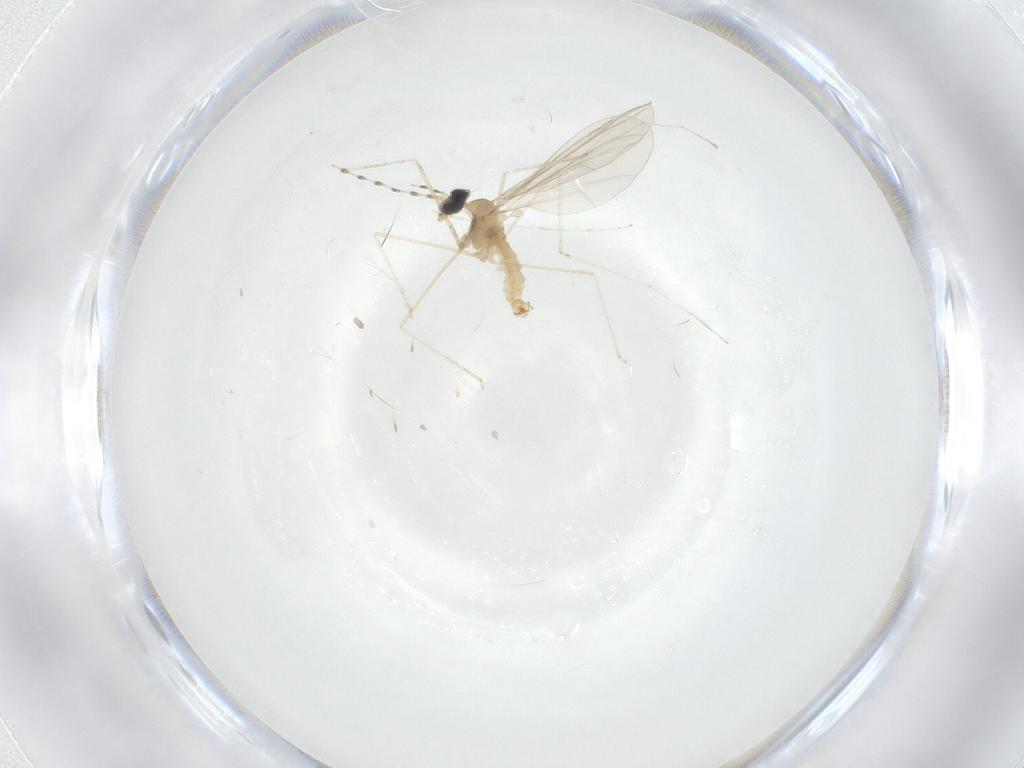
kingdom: Animalia
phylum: Arthropoda
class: Insecta
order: Diptera
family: Cecidomyiidae
